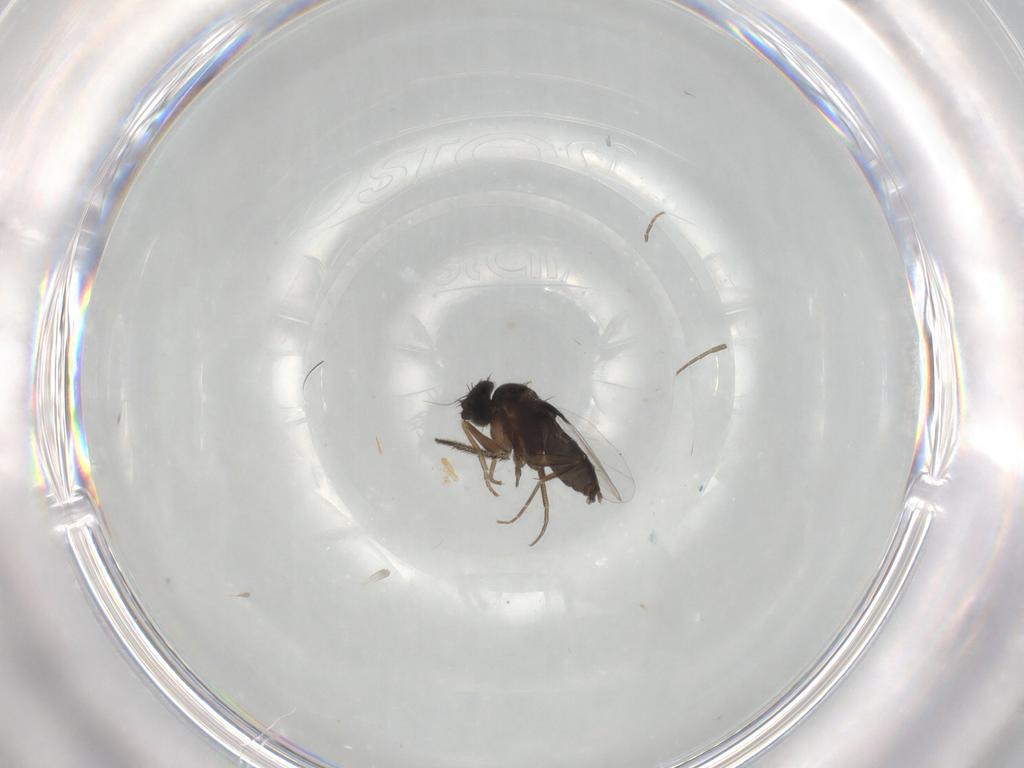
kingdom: Animalia
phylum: Arthropoda
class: Insecta
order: Diptera
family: Phoridae
